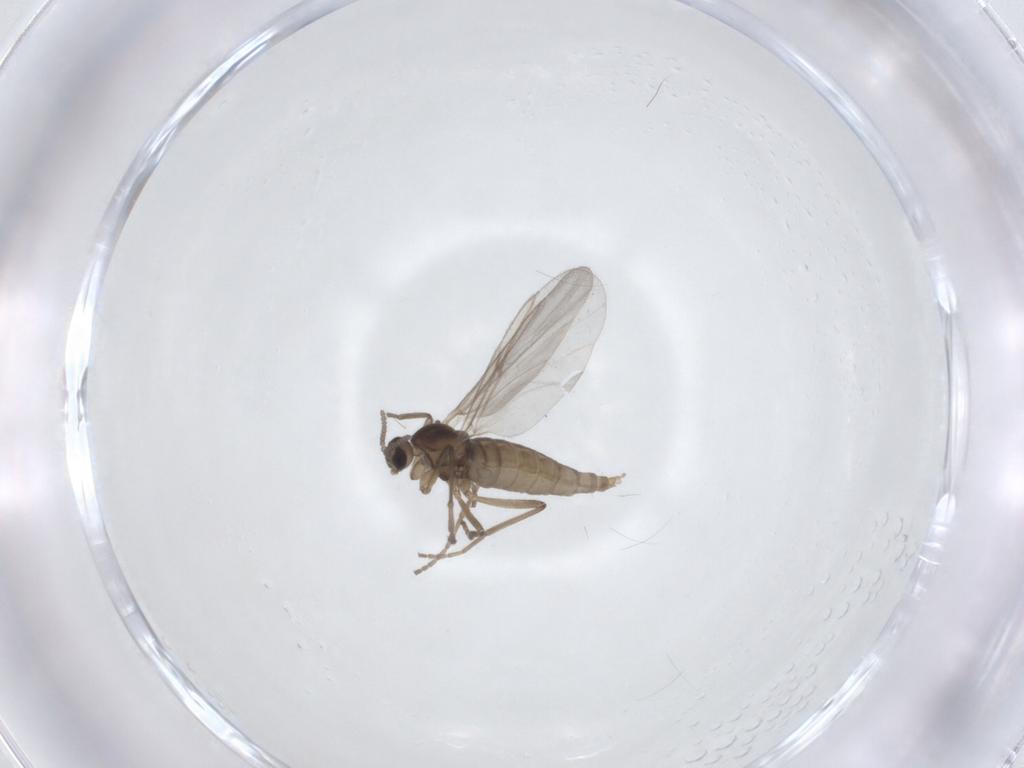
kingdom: Animalia
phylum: Arthropoda
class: Insecta
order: Diptera
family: Cecidomyiidae
